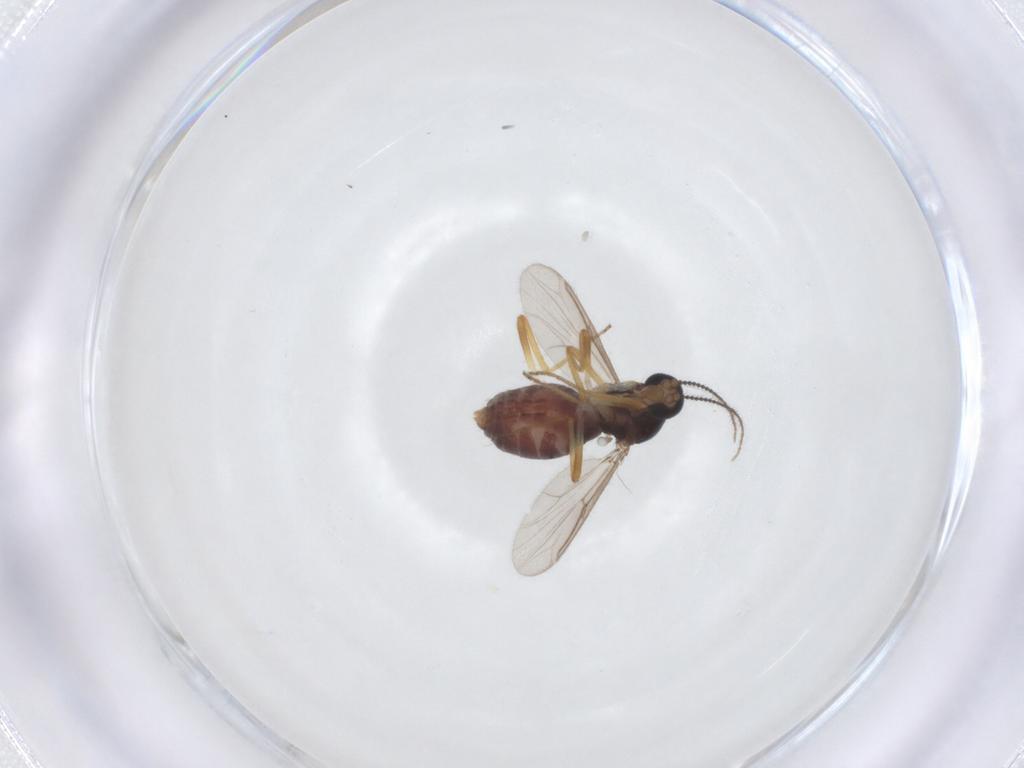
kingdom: Animalia
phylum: Arthropoda
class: Insecta
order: Diptera
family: Ceratopogonidae
